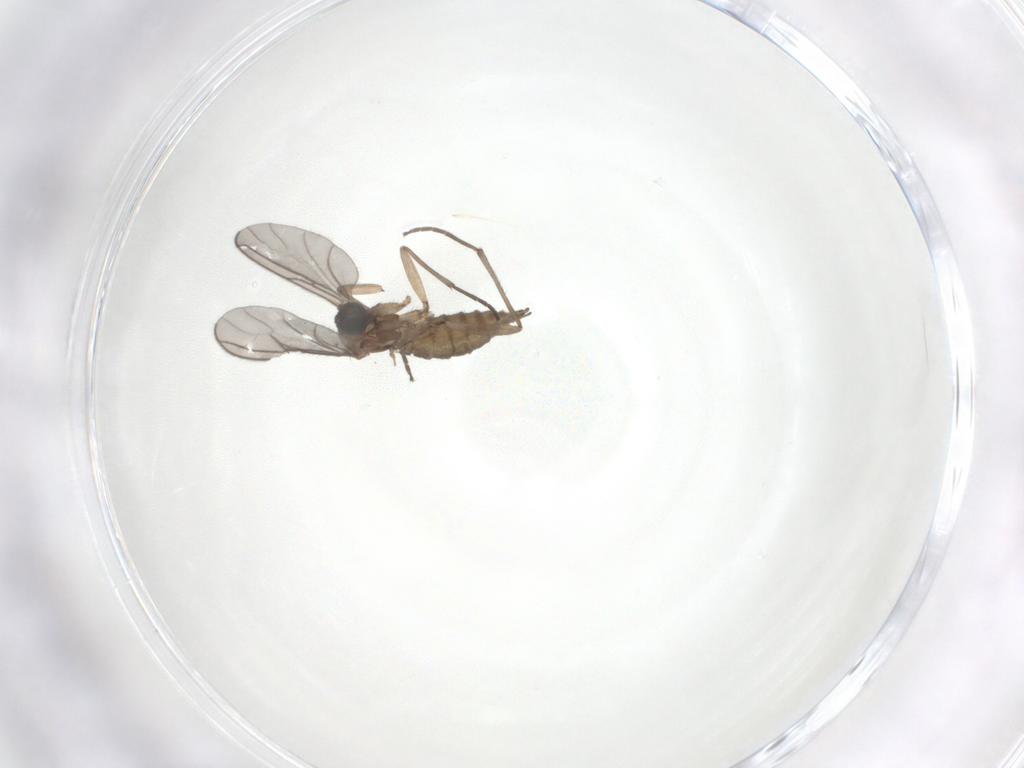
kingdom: Animalia
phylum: Arthropoda
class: Insecta
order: Diptera
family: Sciaridae
